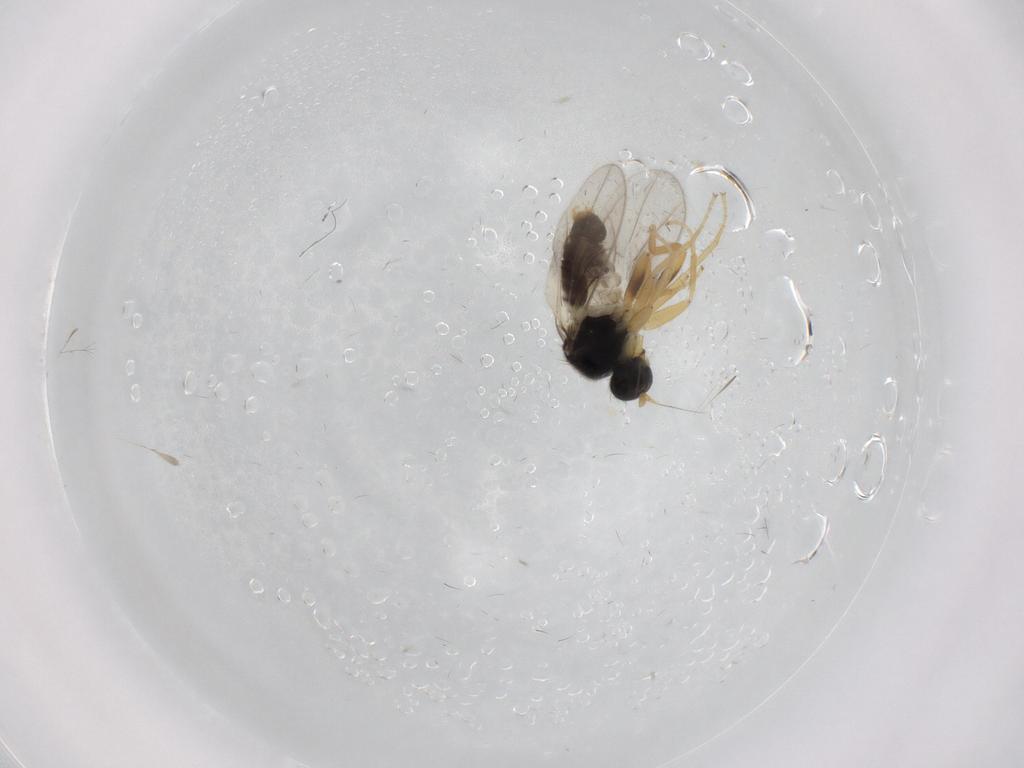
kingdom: Animalia
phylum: Arthropoda
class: Insecta
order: Diptera
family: Hybotidae
